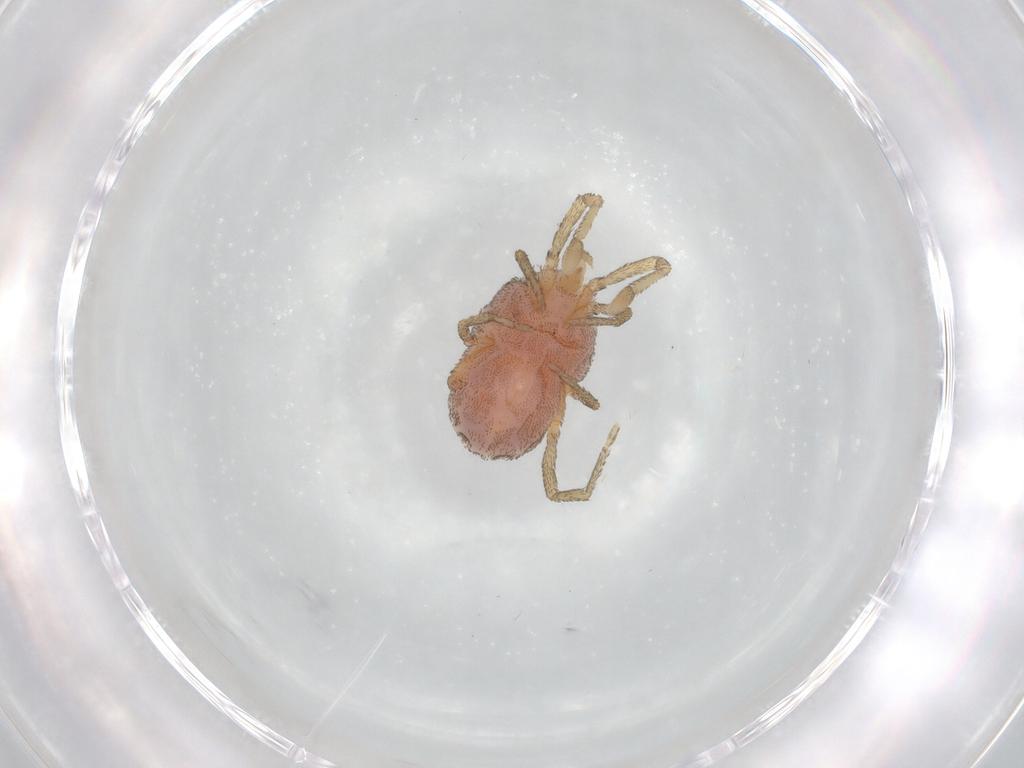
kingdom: Animalia
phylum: Arthropoda
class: Arachnida
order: Trombidiformes
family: Erythraeidae
